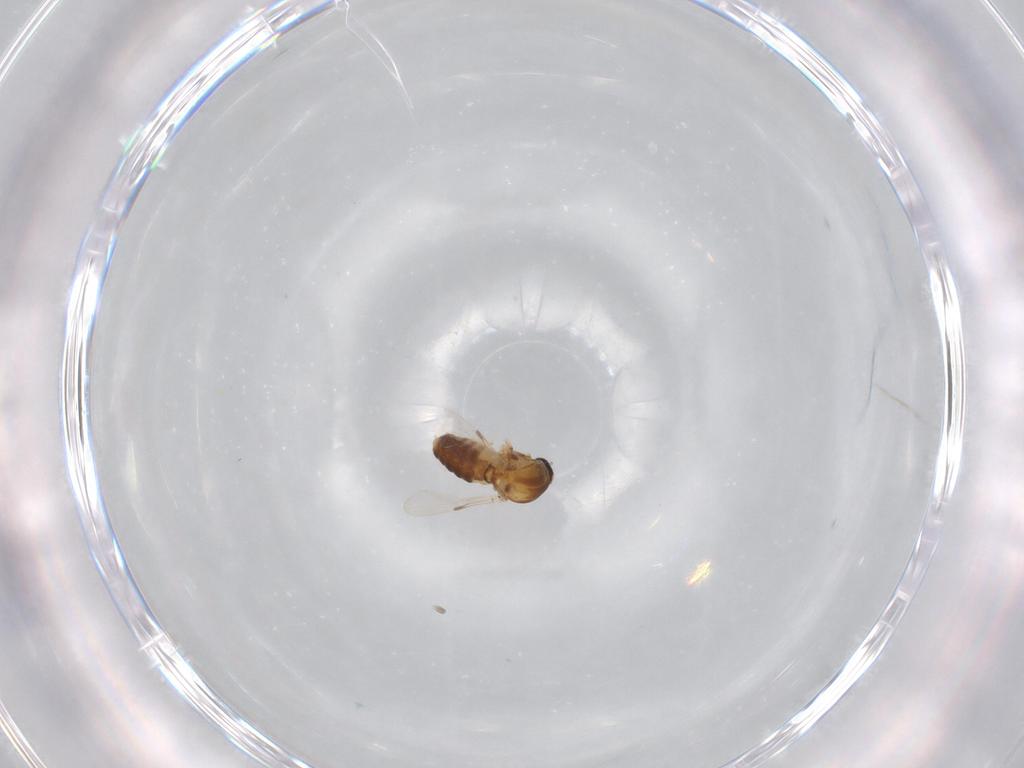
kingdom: Animalia
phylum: Arthropoda
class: Insecta
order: Diptera
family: Ceratopogonidae
